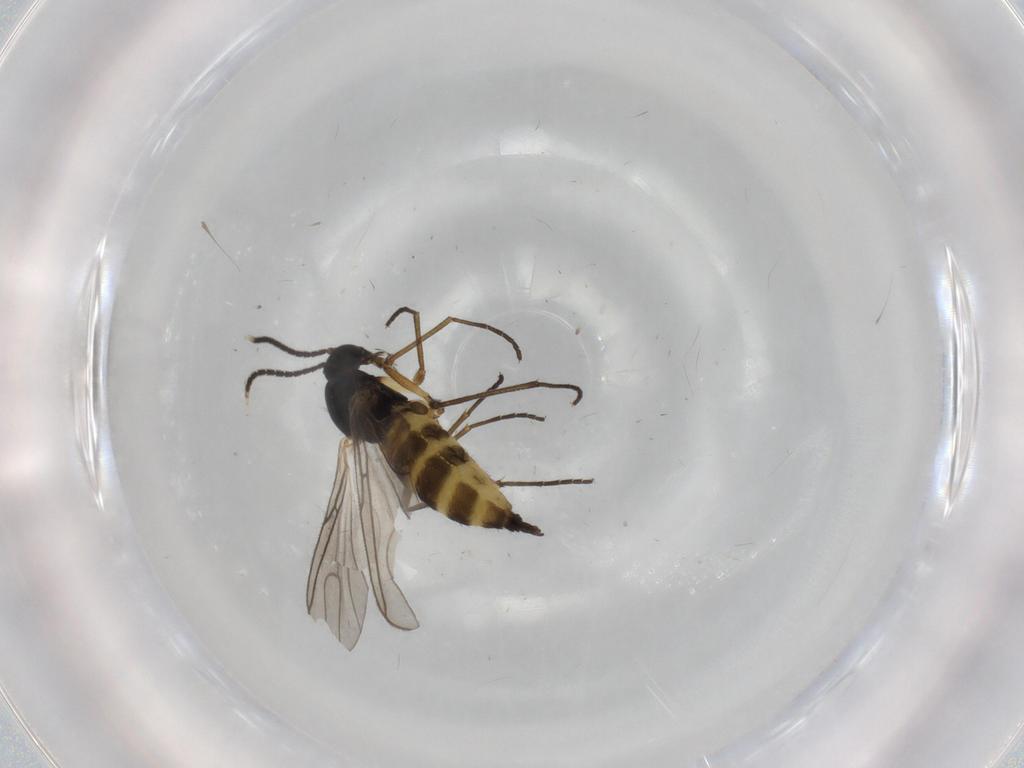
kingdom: Animalia
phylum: Arthropoda
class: Insecta
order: Diptera
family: Sciaridae
